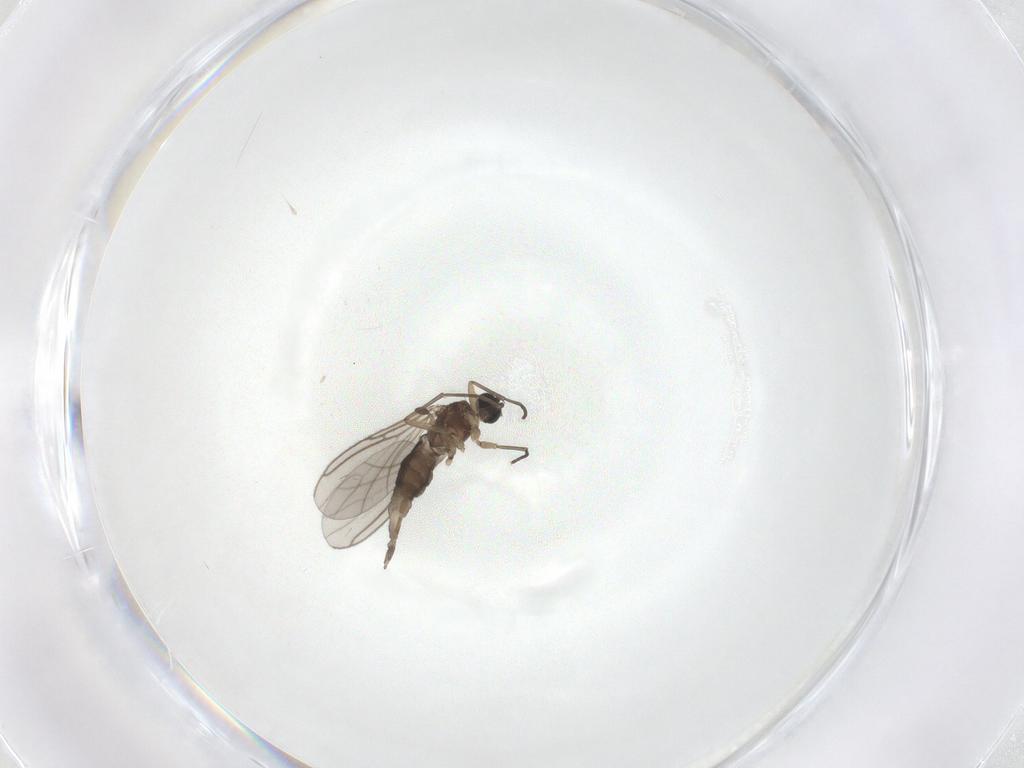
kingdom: Animalia
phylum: Arthropoda
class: Insecta
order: Diptera
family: Sciaridae
